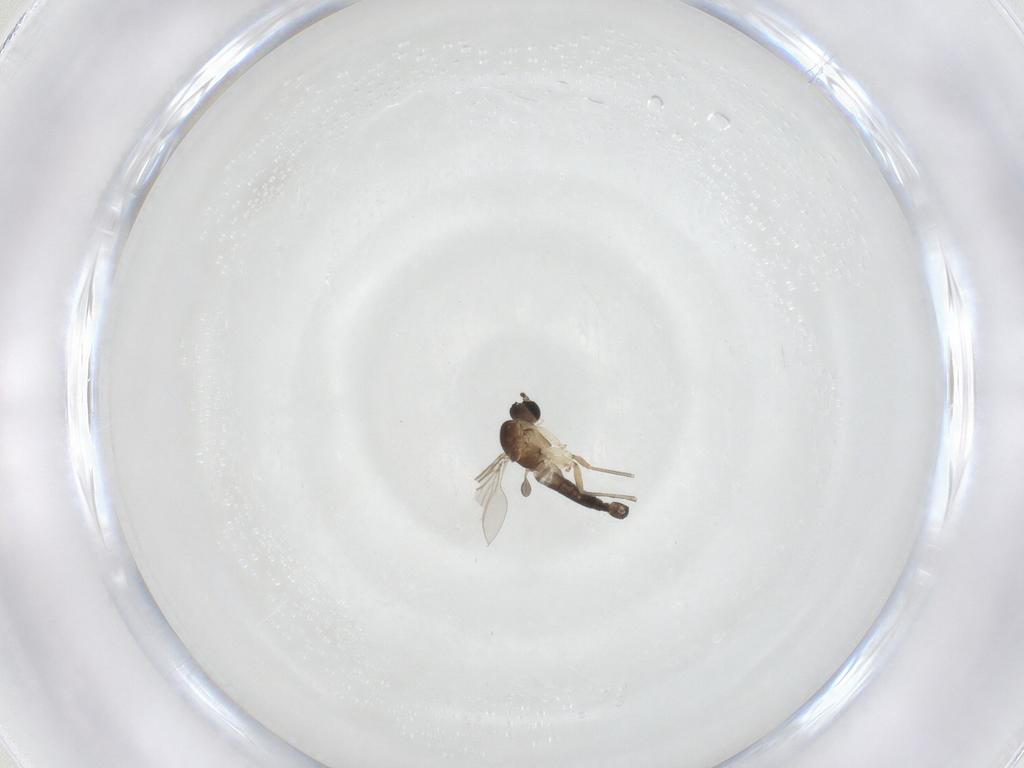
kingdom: Animalia
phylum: Arthropoda
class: Insecta
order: Diptera
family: Sciaridae
